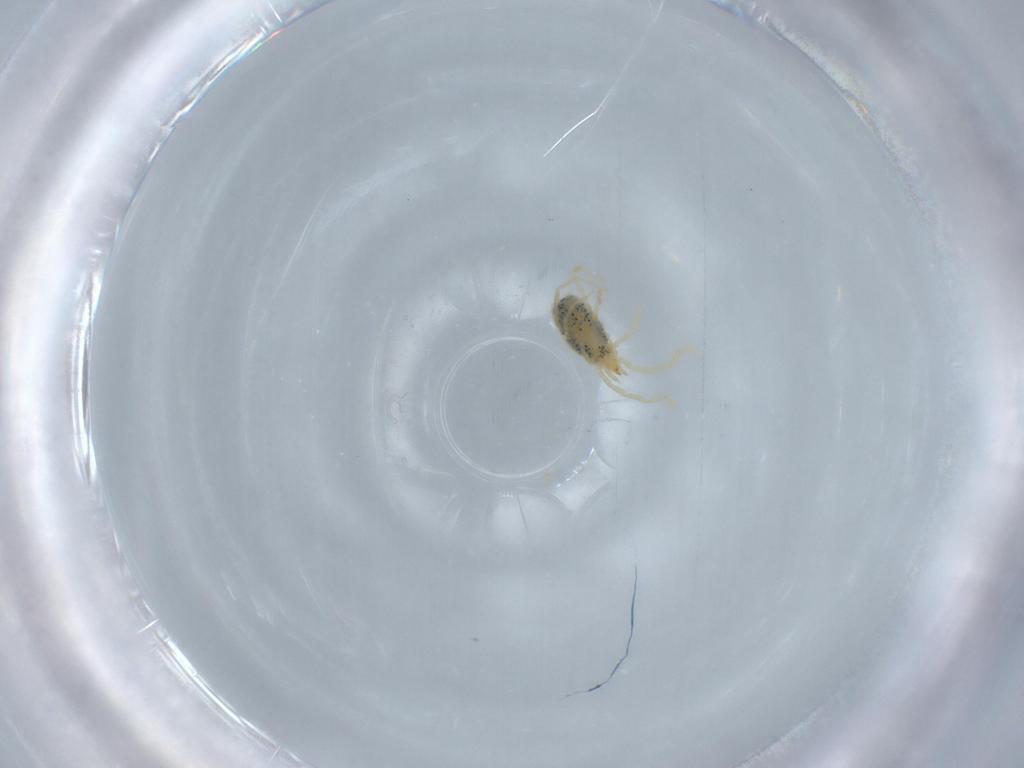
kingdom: Animalia
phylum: Arthropoda
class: Arachnida
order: Trombidiformes
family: Erythraeidae
